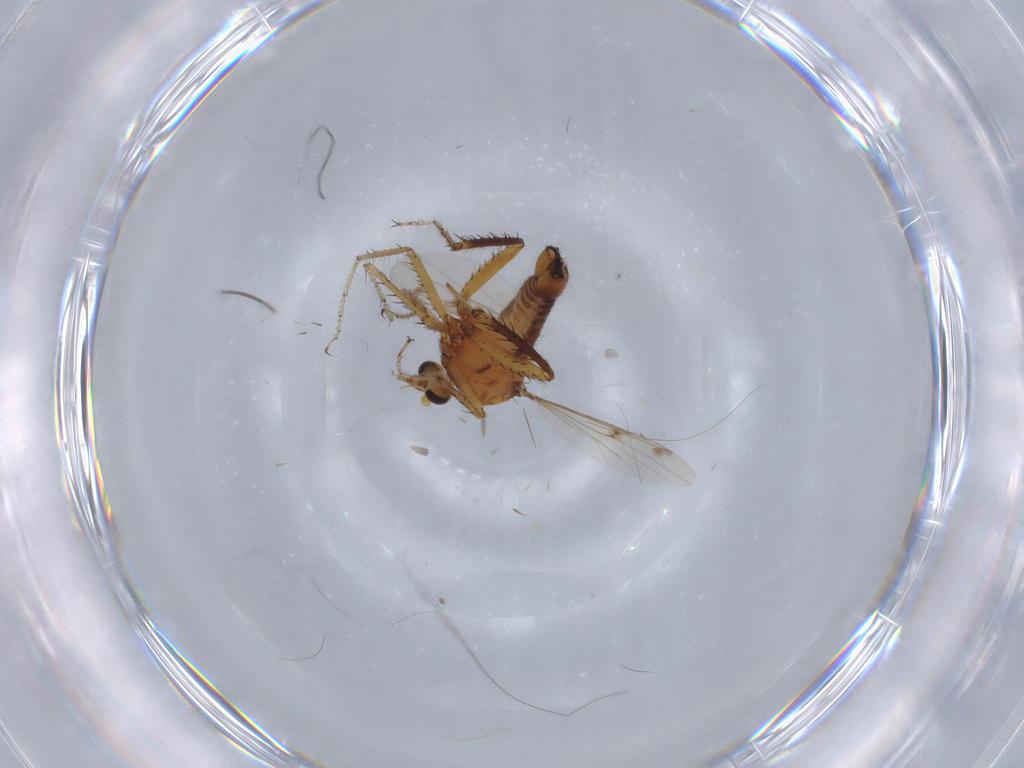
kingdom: Animalia
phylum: Arthropoda
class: Insecta
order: Diptera
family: Ceratopogonidae
